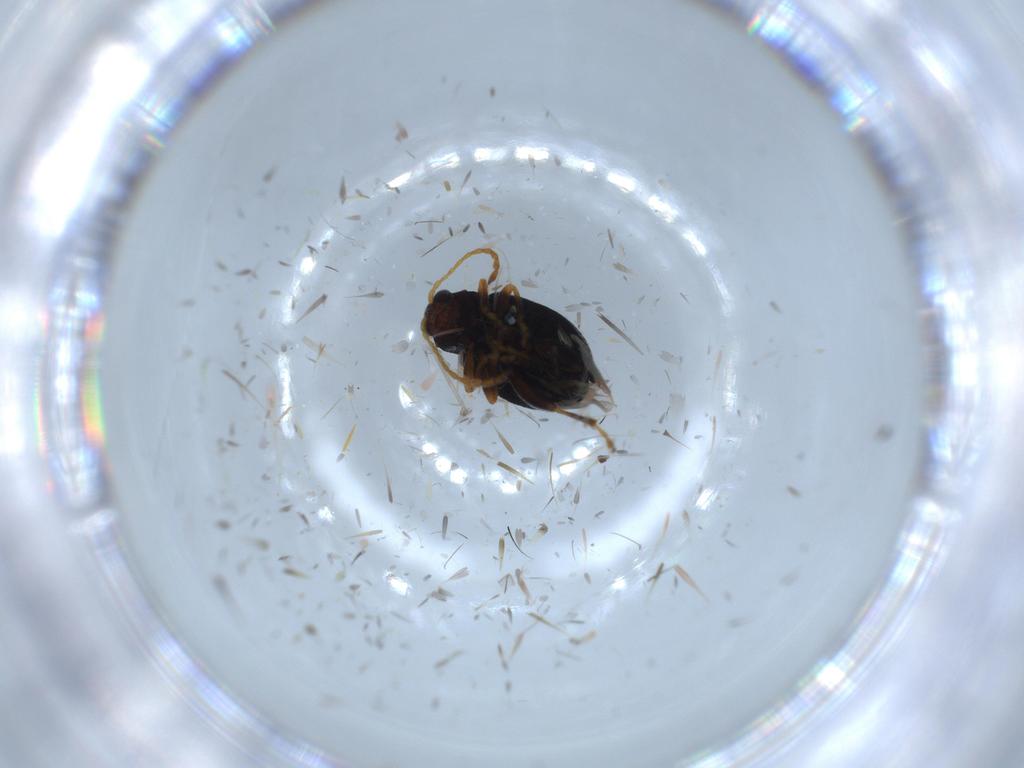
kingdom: Animalia
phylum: Arthropoda
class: Insecta
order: Coleoptera
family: Chrysomelidae
